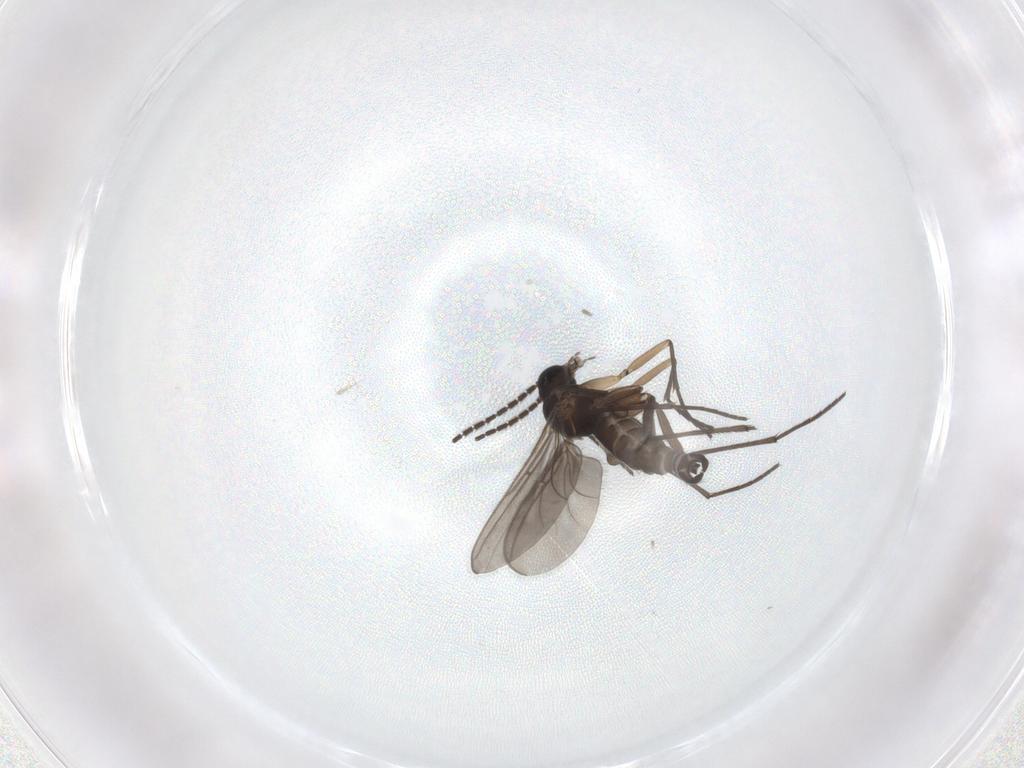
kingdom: Animalia
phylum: Arthropoda
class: Insecta
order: Diptera
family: Sciaridae
